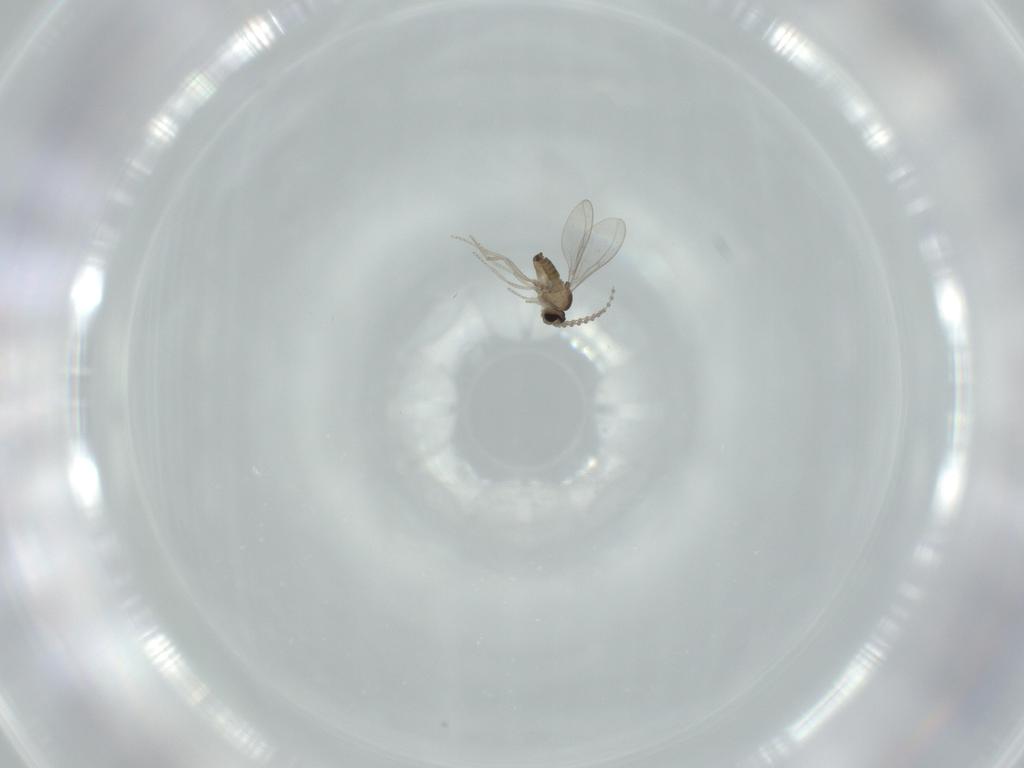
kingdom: Animalia
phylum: Arthropoda
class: Insecta
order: Diptera
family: Cecidomyiidae
